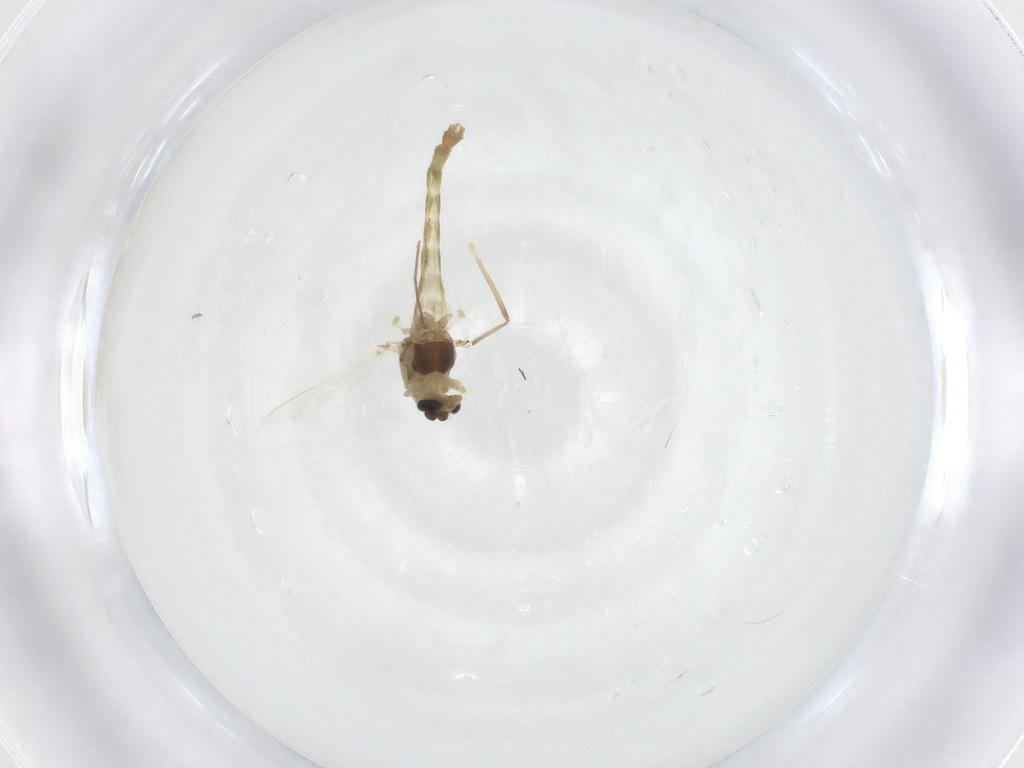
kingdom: Animalia
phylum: Arthropoda
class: Insecta
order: Diptera
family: Chironomidae
